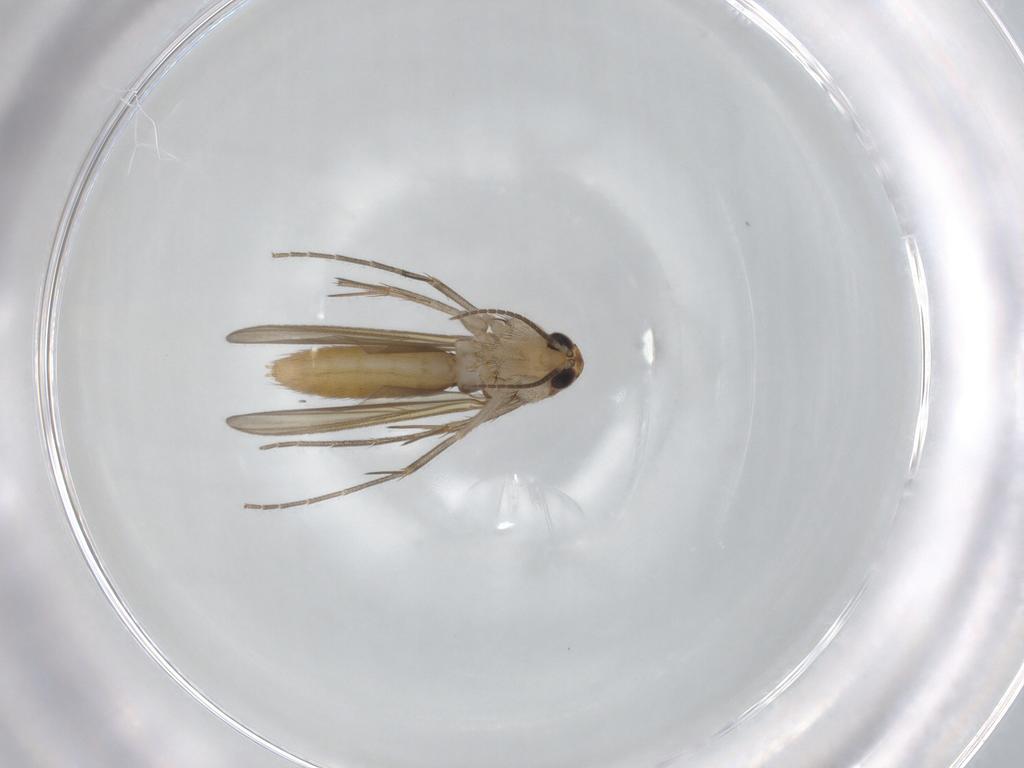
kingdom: Animalia
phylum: Arthropoda
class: Insecta
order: Diptera
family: Mycetophilidae
